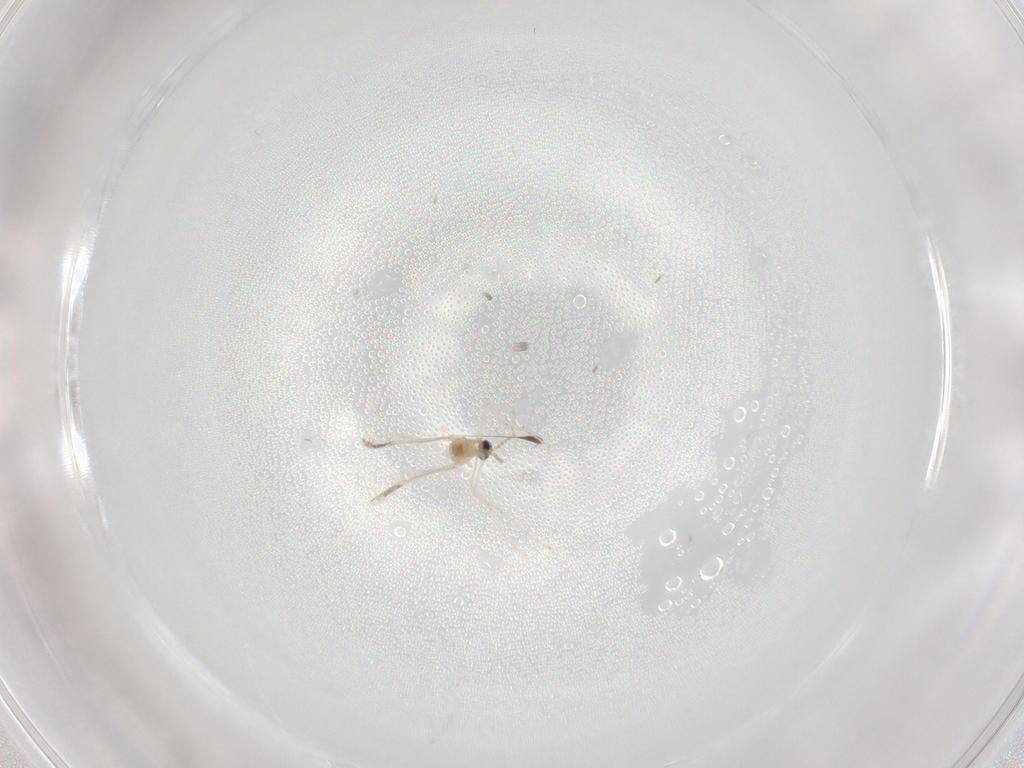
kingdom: Animalia
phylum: Arthropoda
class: Insecta
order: Diptera
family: Cecidomyiidae
